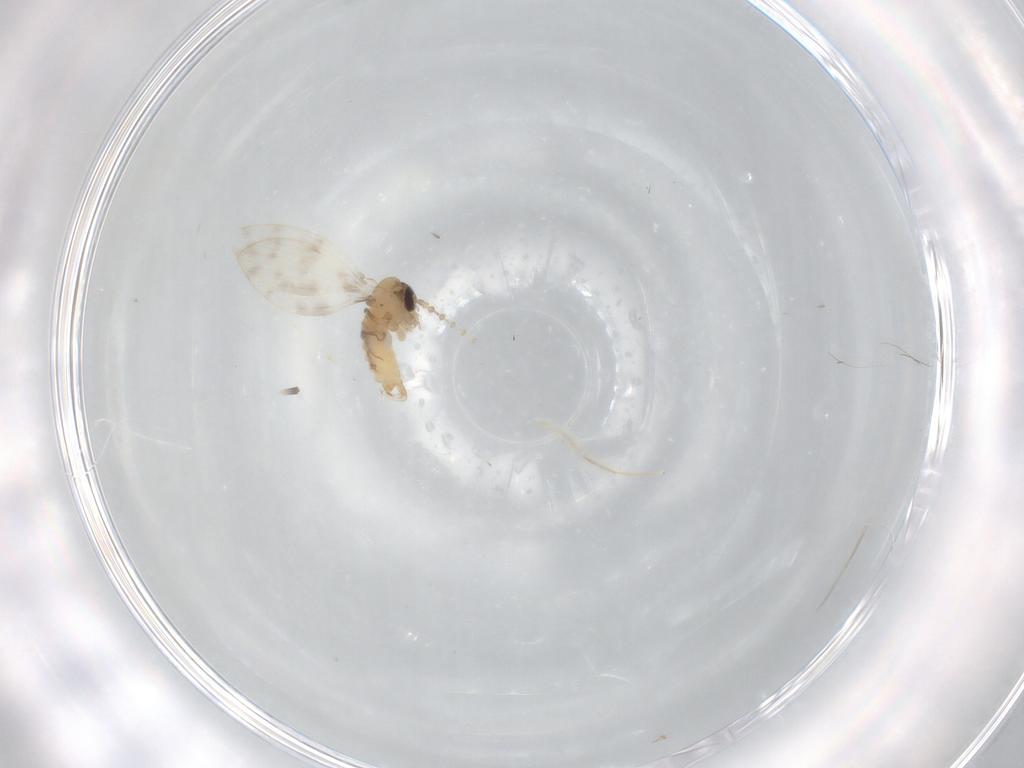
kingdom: Animalia
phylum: Arthropoda
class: Insecta
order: Diptera
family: Psychodidae
